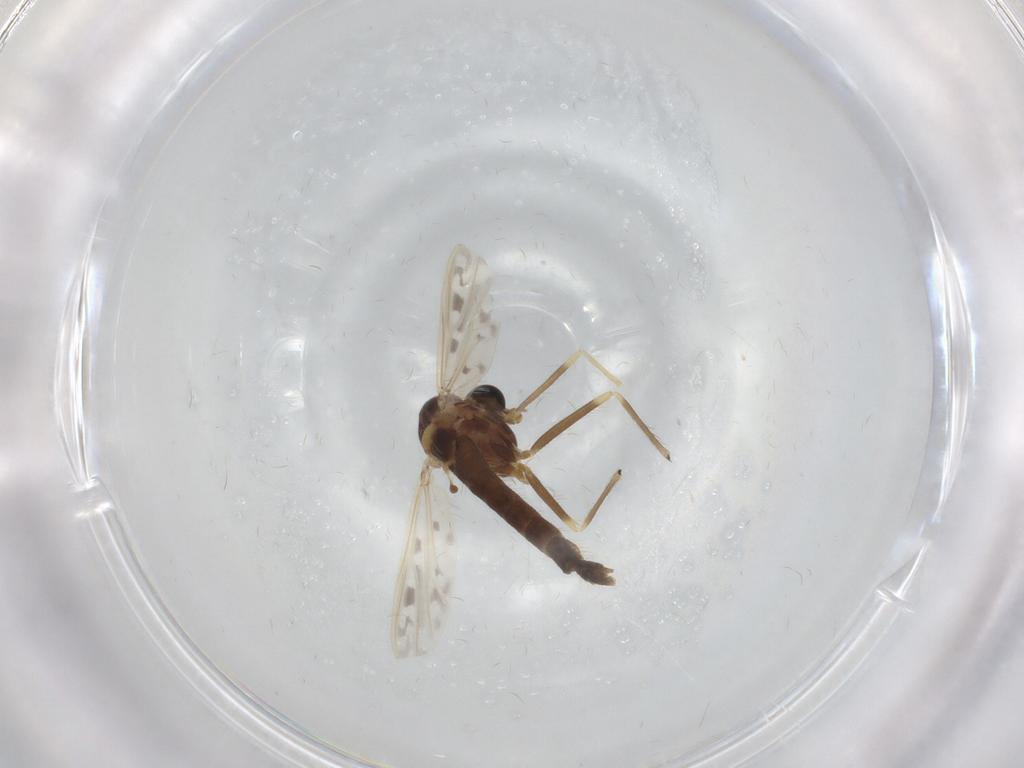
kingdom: Animalia
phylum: Arthropoda
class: Insecta
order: Diptera
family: Chironomidae
